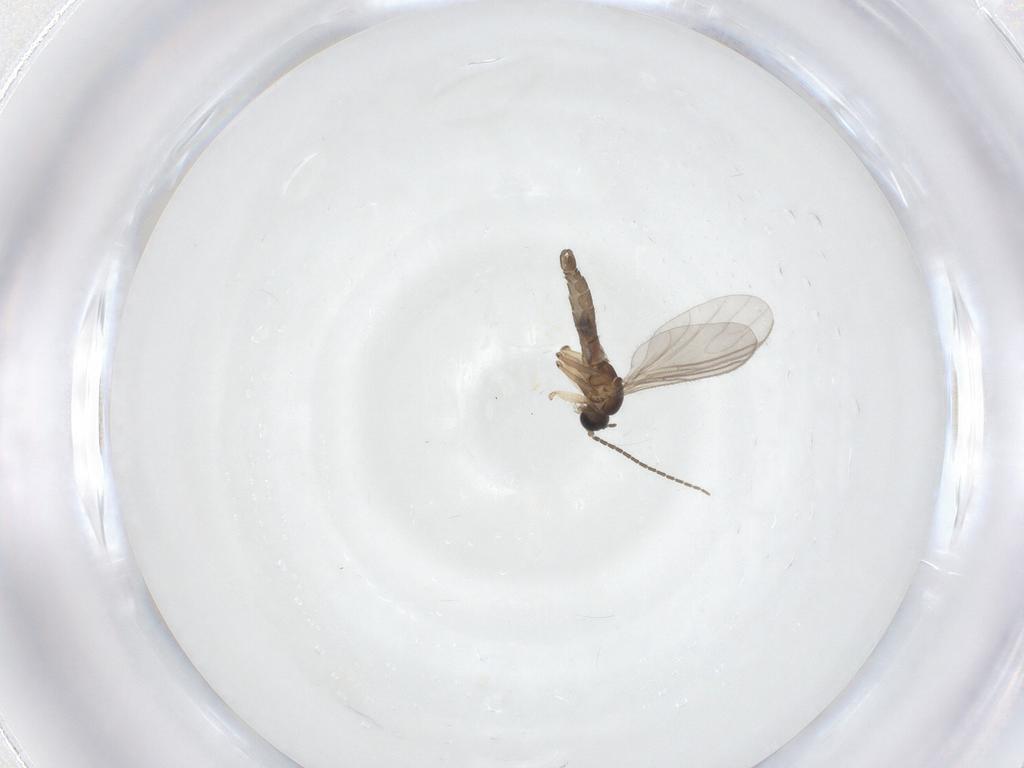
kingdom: Animalia
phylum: Arthropoda
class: Insecta
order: Diptera
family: Sciaridae
